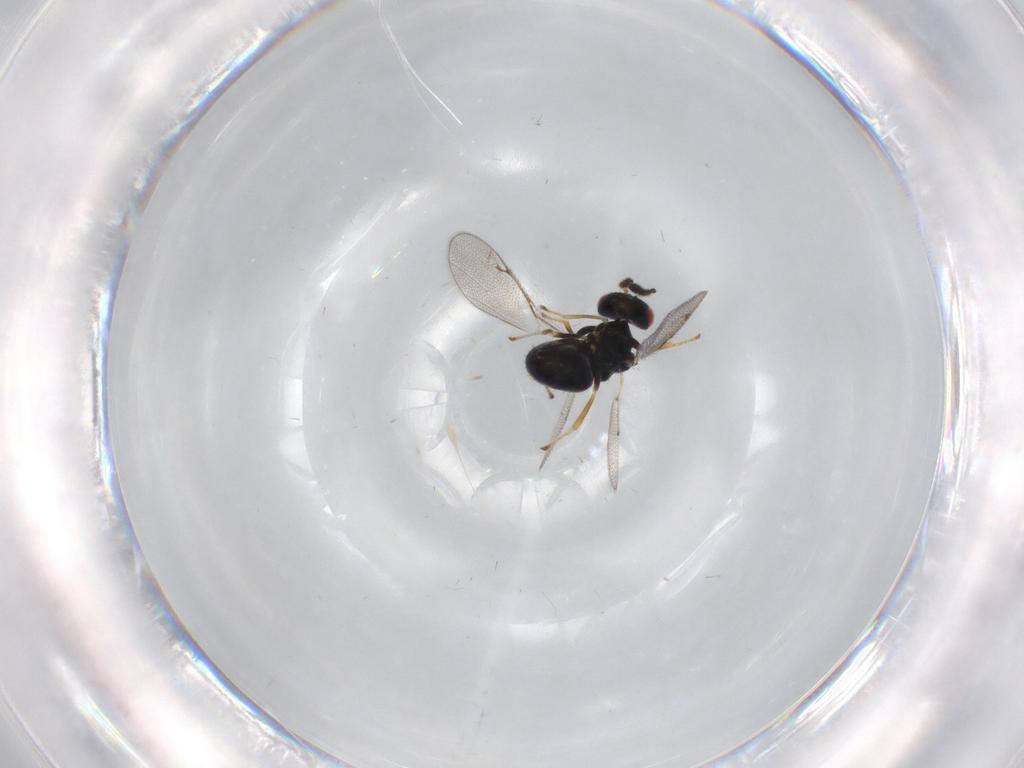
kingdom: Animalia
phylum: Arthropoda
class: Insecta
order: Hymenoptera
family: Pteromalidae
